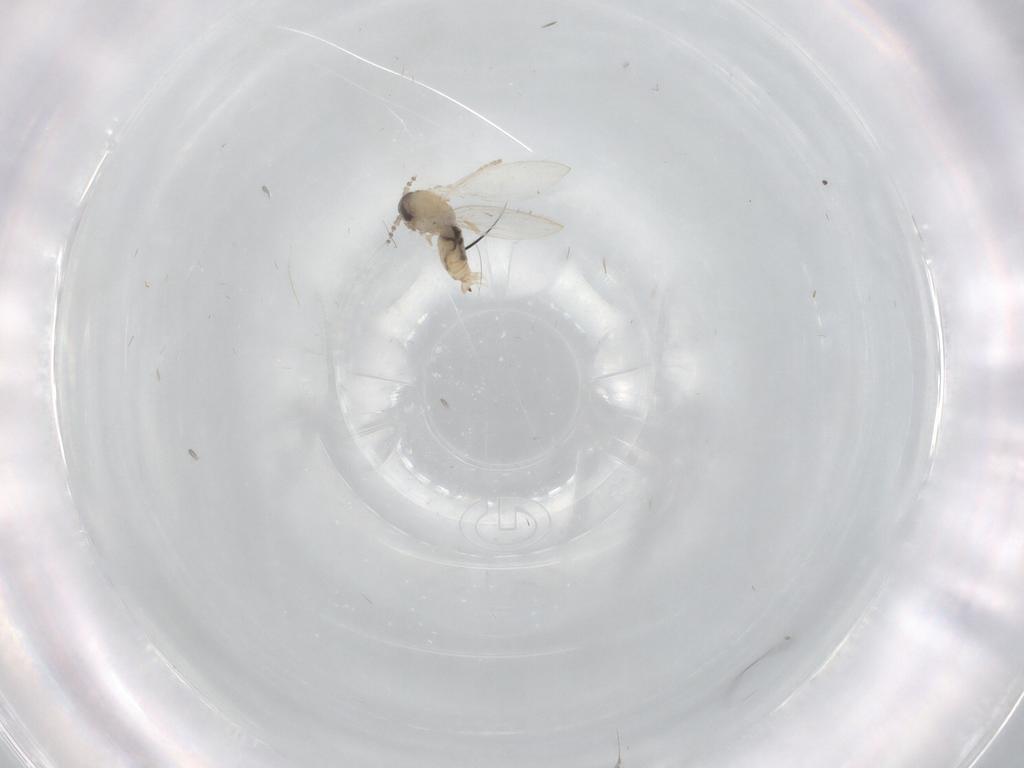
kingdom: Animalia
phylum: Arthropoda
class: Insecta
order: Diptera
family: Psychodidae
